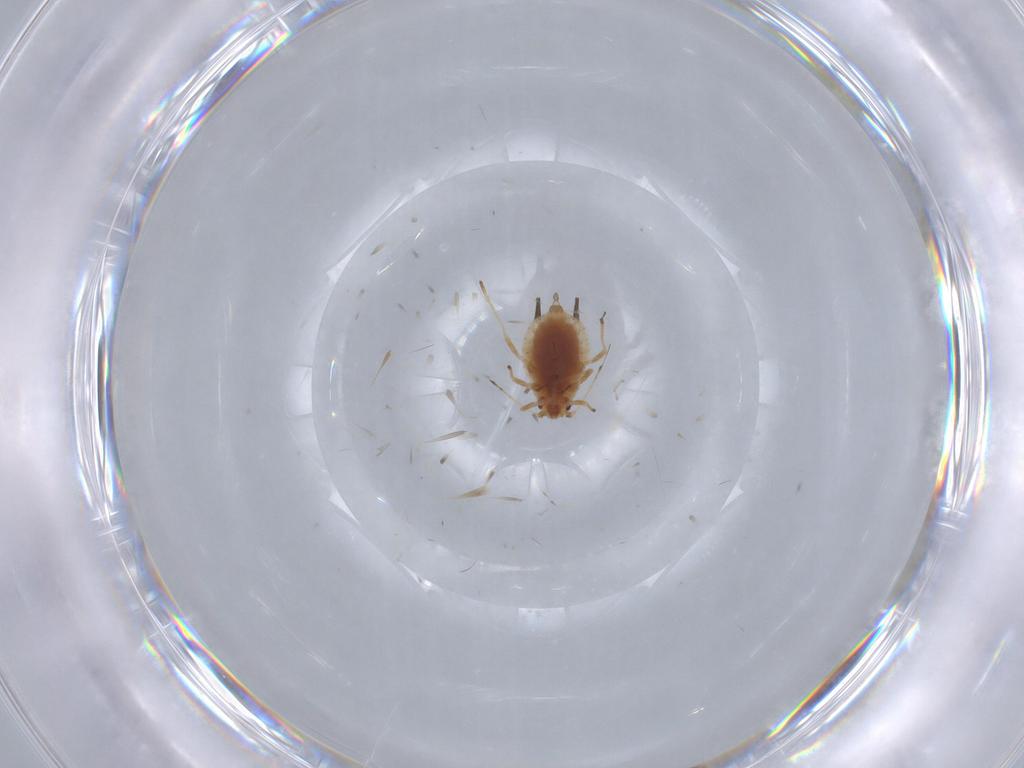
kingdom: Animalia
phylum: Arthropoda
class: Insecta
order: Hemiptera
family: Aphididae
